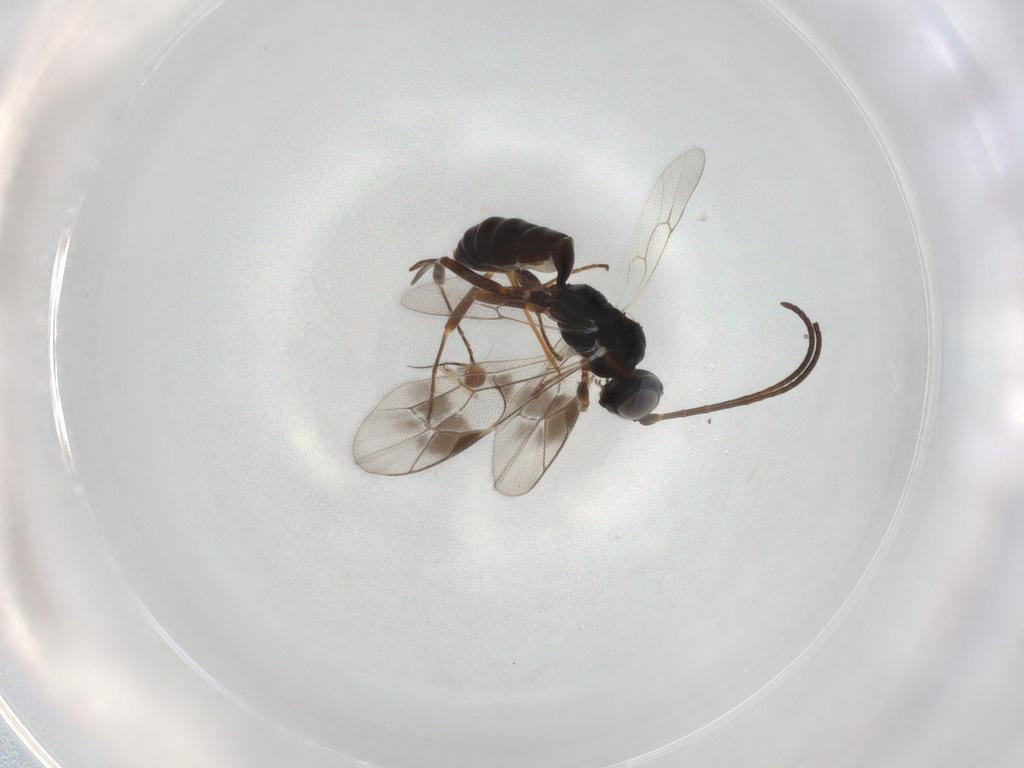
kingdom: Animalia
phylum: Arthropoda
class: Insecta
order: Hymenoptera
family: Ichneumonidae
